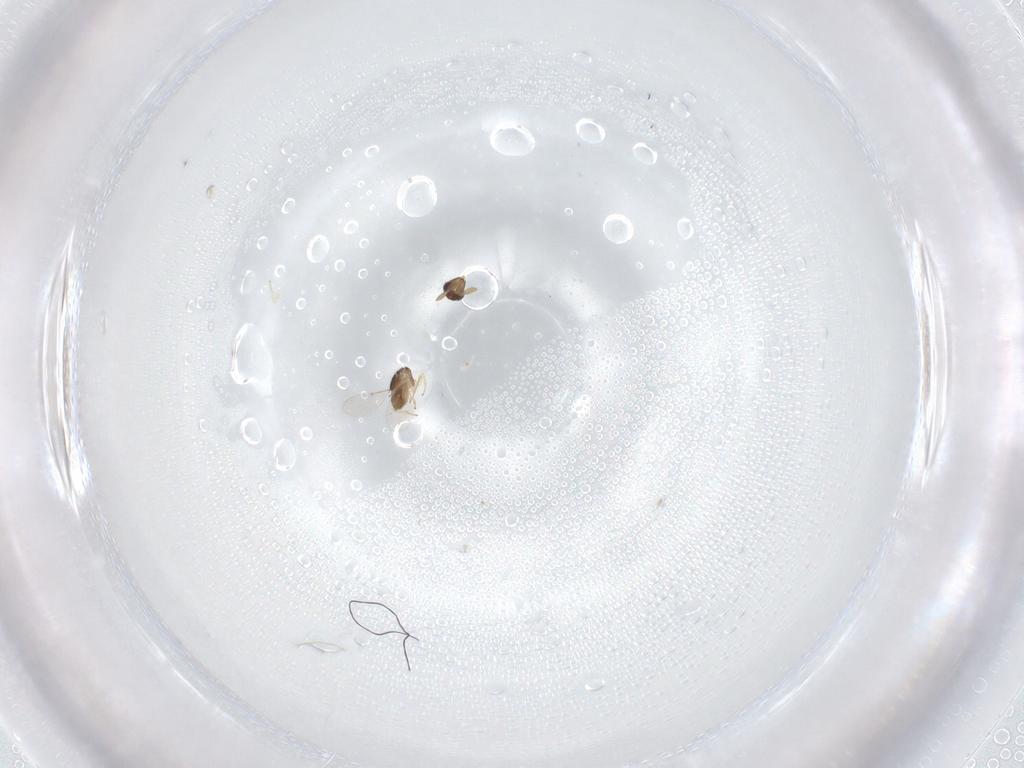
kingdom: Animalia
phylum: Arthropoda
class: Insecta
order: Hymenoptera
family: Encyrtidae
